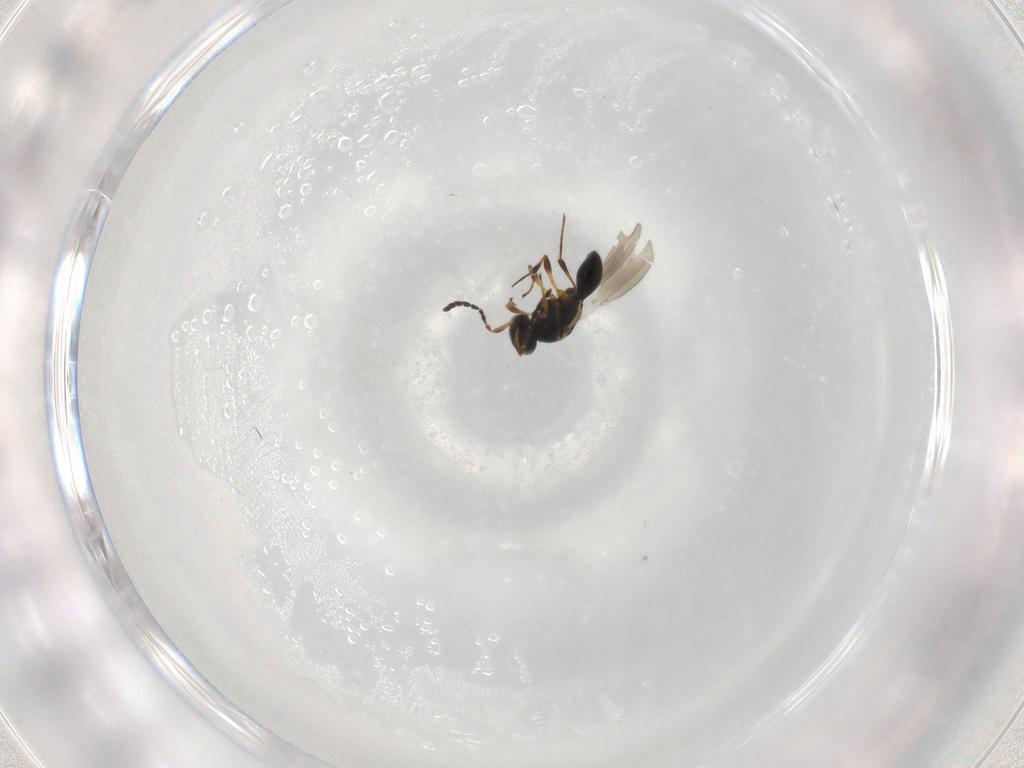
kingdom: Animalia
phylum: Arthropoda
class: Insecta
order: Hymenoptera
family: Platygastridae
